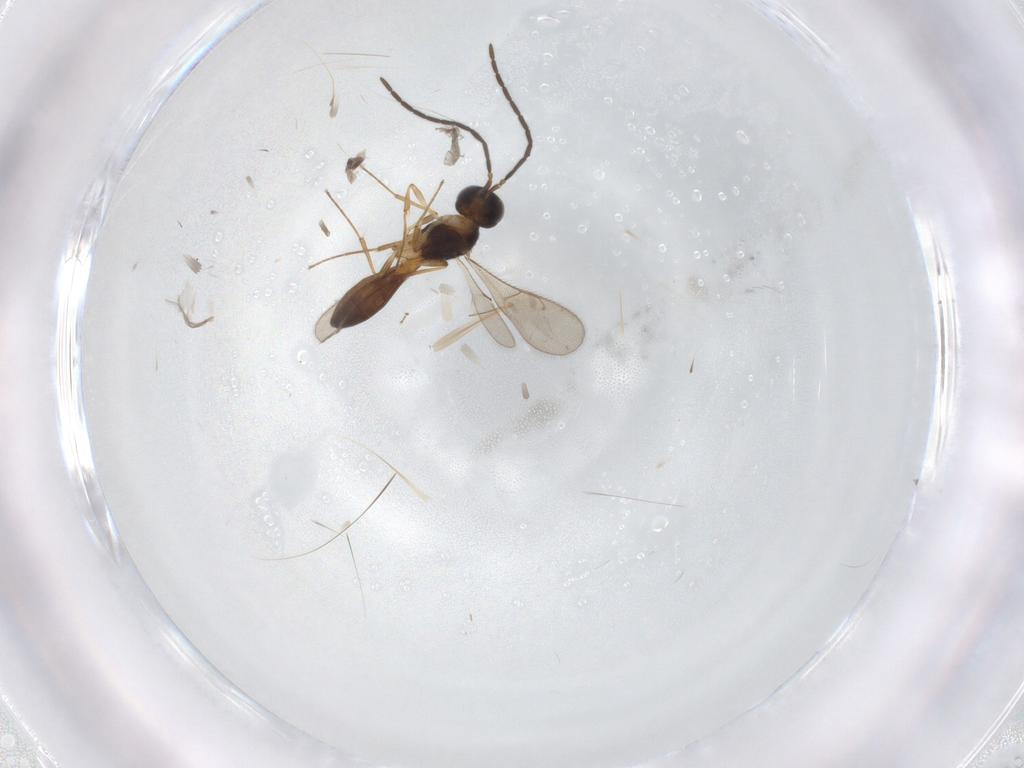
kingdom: Animalia
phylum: Arthropoda
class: Insecta
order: Hymenoptera
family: Scelionidae
